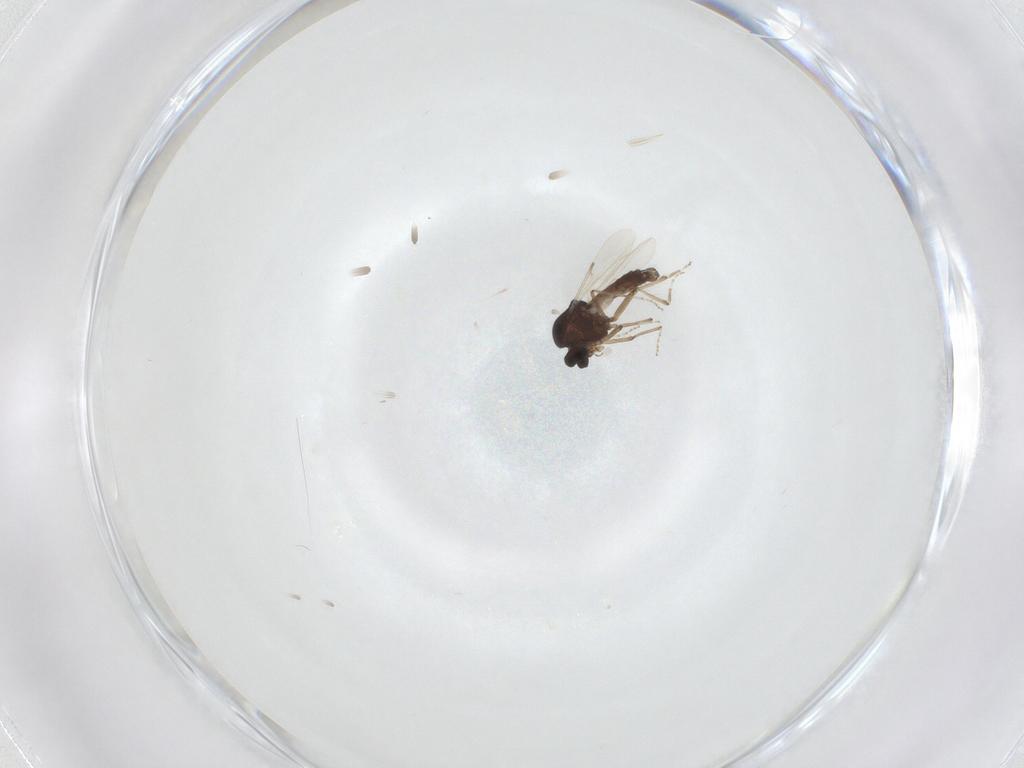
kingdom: Animalia
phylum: Arthropoda
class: Insecta
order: Diptera
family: Ceratopogonidae
